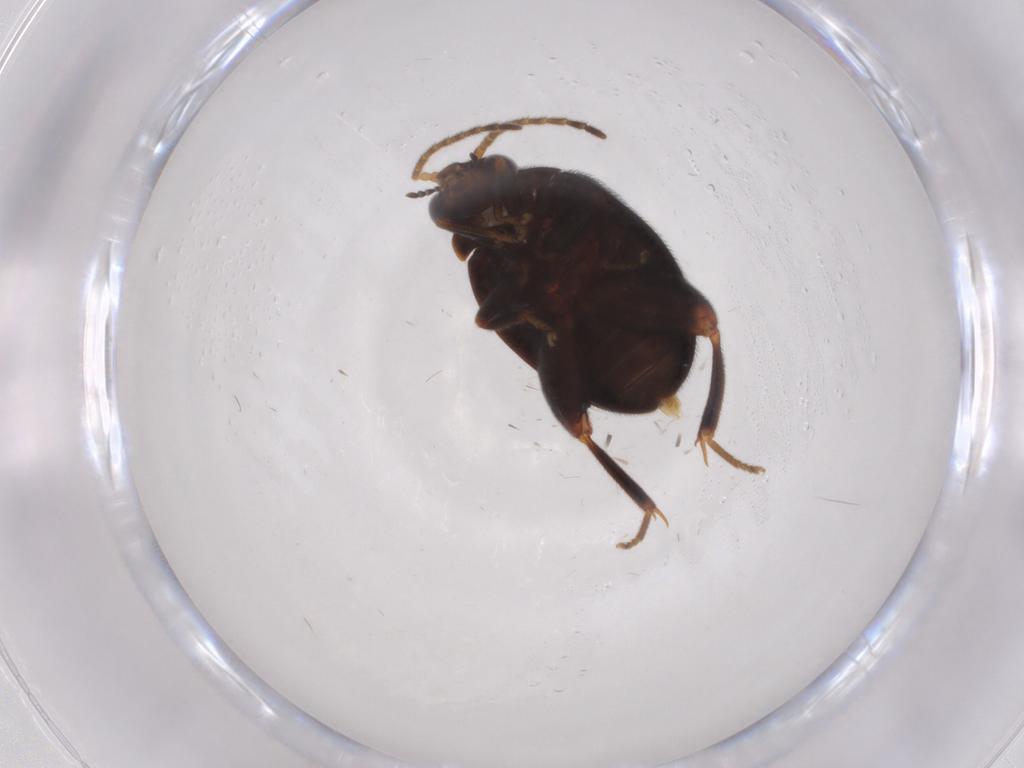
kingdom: Animalia
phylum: Arthropoda
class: Insecta
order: Coleoptera
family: Scirtidae
